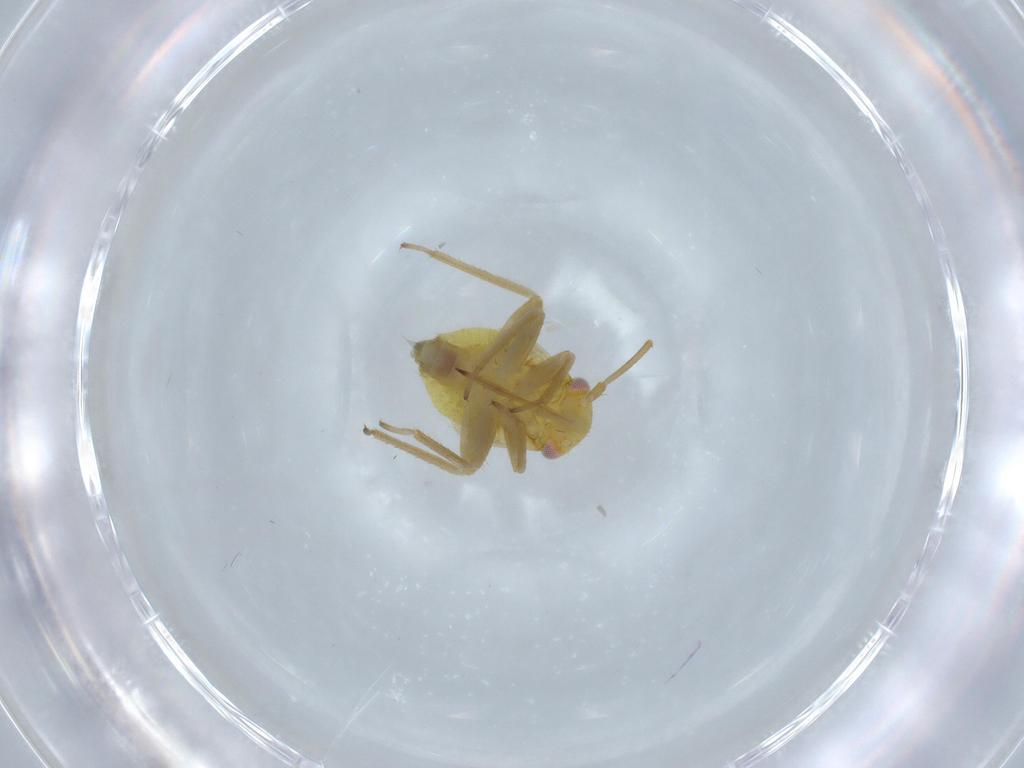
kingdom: Animalia
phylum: Arthropoda
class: Insecta
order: Hemiptera
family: Miridae
